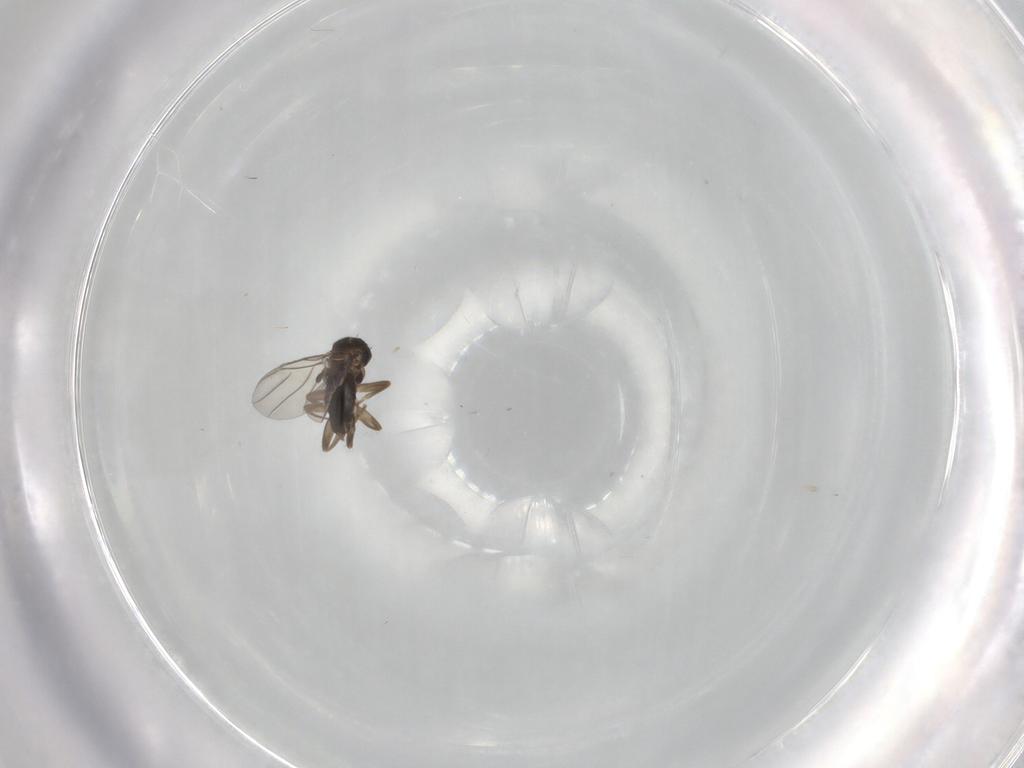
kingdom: Animalia
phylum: Arthropoda
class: Insecta
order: Diptera
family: Phoridae
